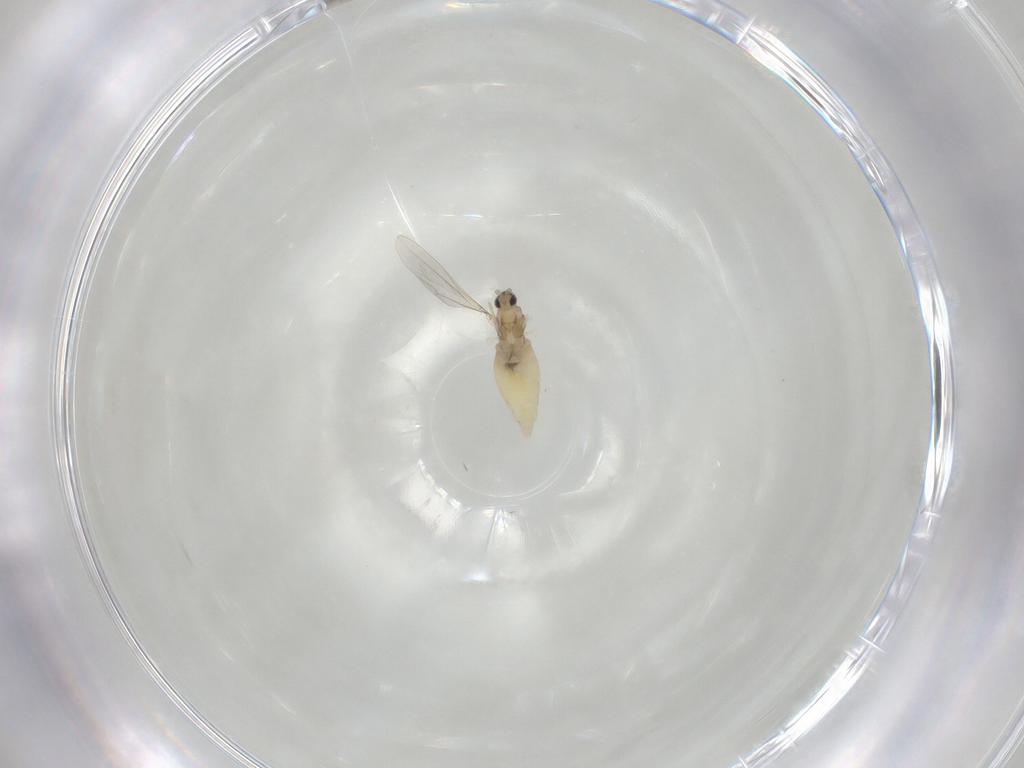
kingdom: Animalia
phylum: Arthropoda
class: Insecta
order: Diptera
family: Cecidomyiidae
